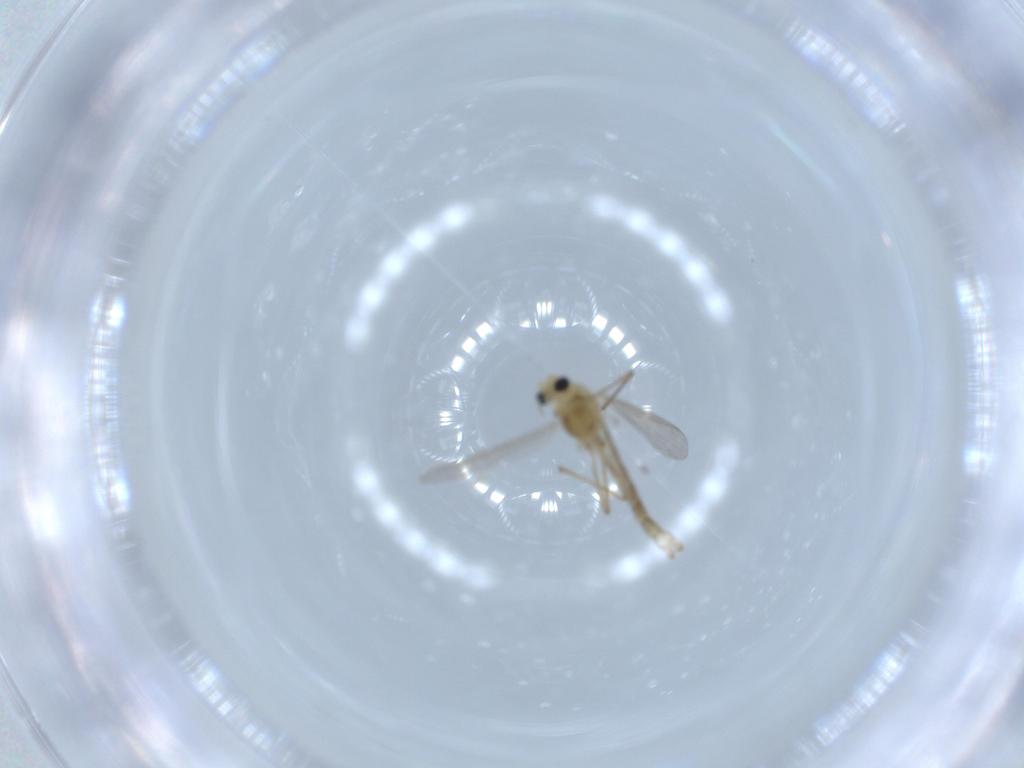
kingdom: Animalia
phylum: Arthropoda
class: Insecta
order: Diptera
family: Chironomidae
